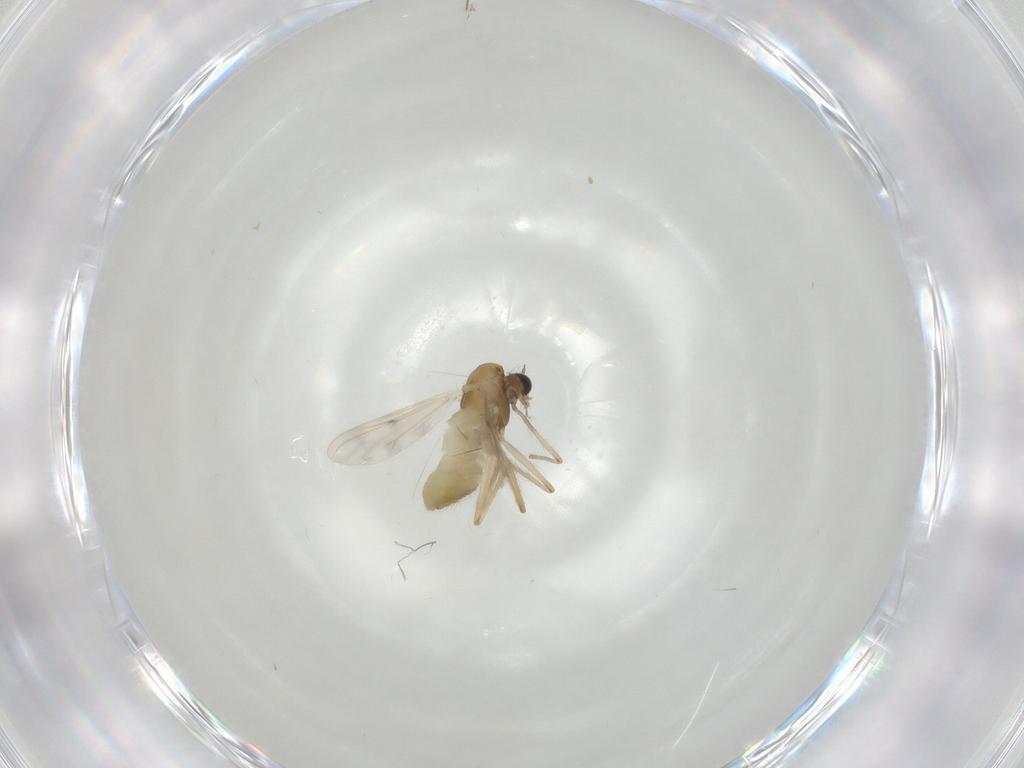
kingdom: Animalia
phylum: Arthropoda
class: Insecta
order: Diptera
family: Chironomidae
